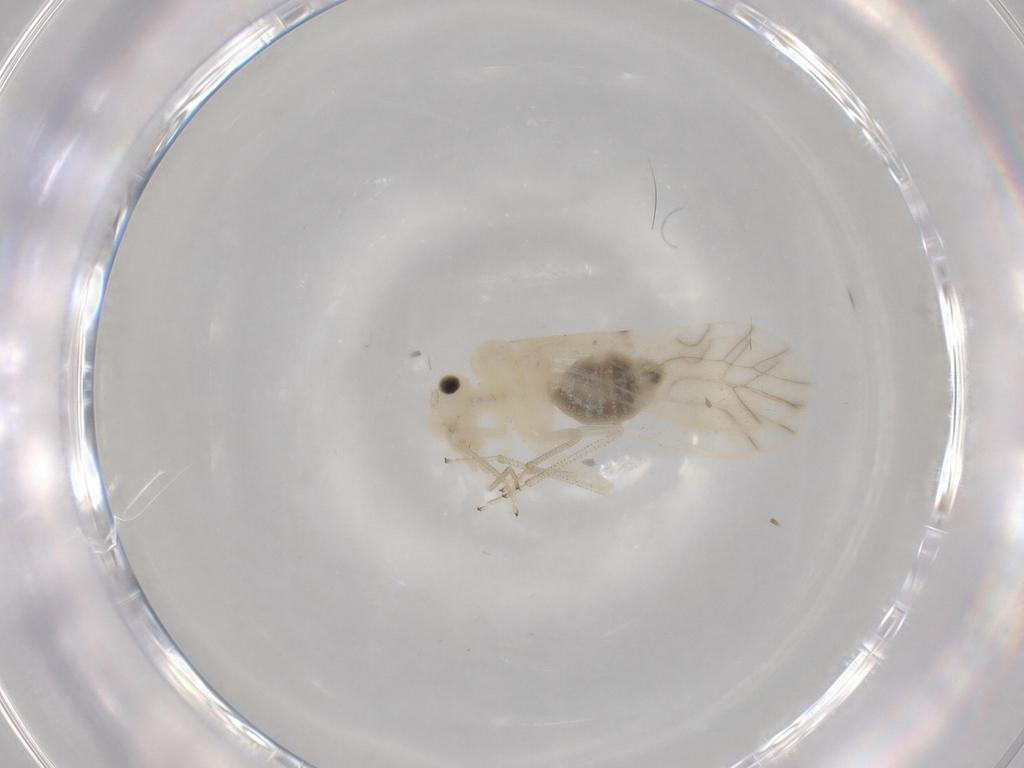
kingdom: Animalia
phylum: Arthropoda
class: Insecta
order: Psocodea
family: Caeciliusidae
